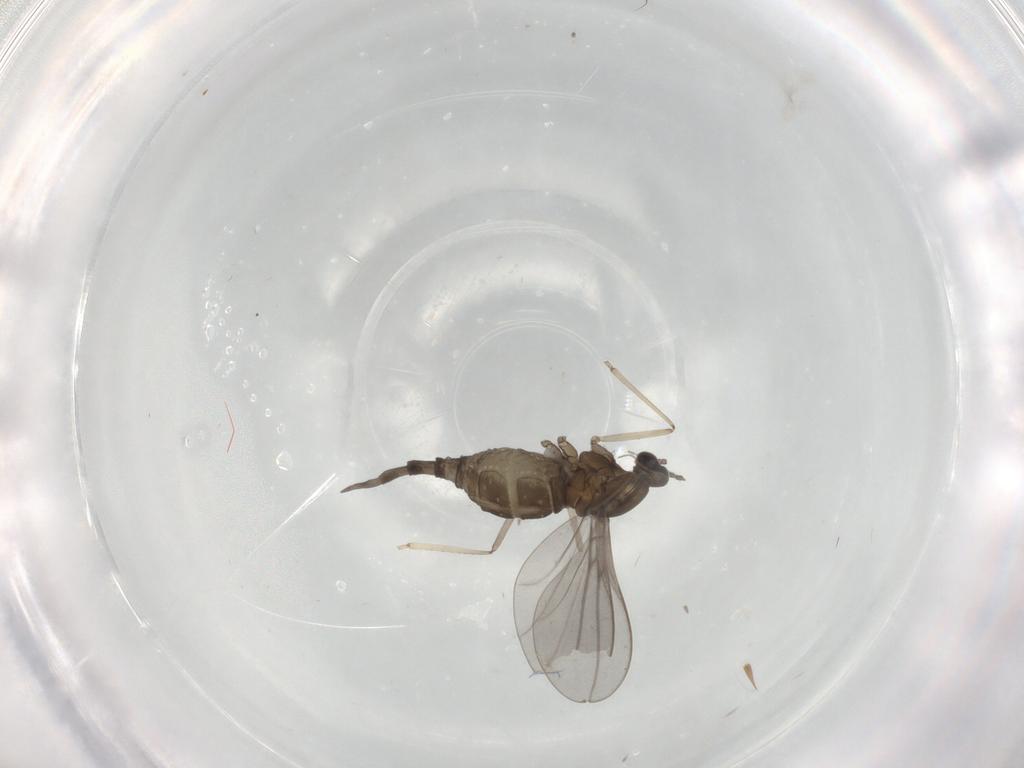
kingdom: Animalia
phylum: Arthropoda
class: Insecta
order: Diptera
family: Cecidomyiidae
